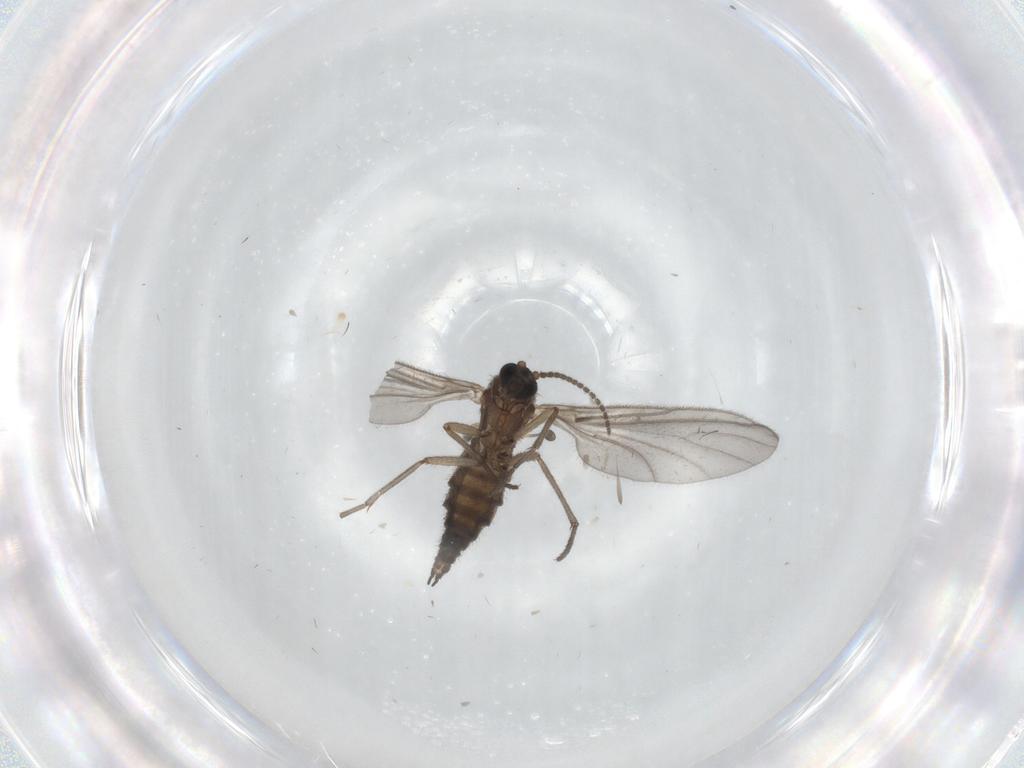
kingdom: Animalia
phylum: Arthropoda
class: Insecta
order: Diptera
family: Sciaridae
